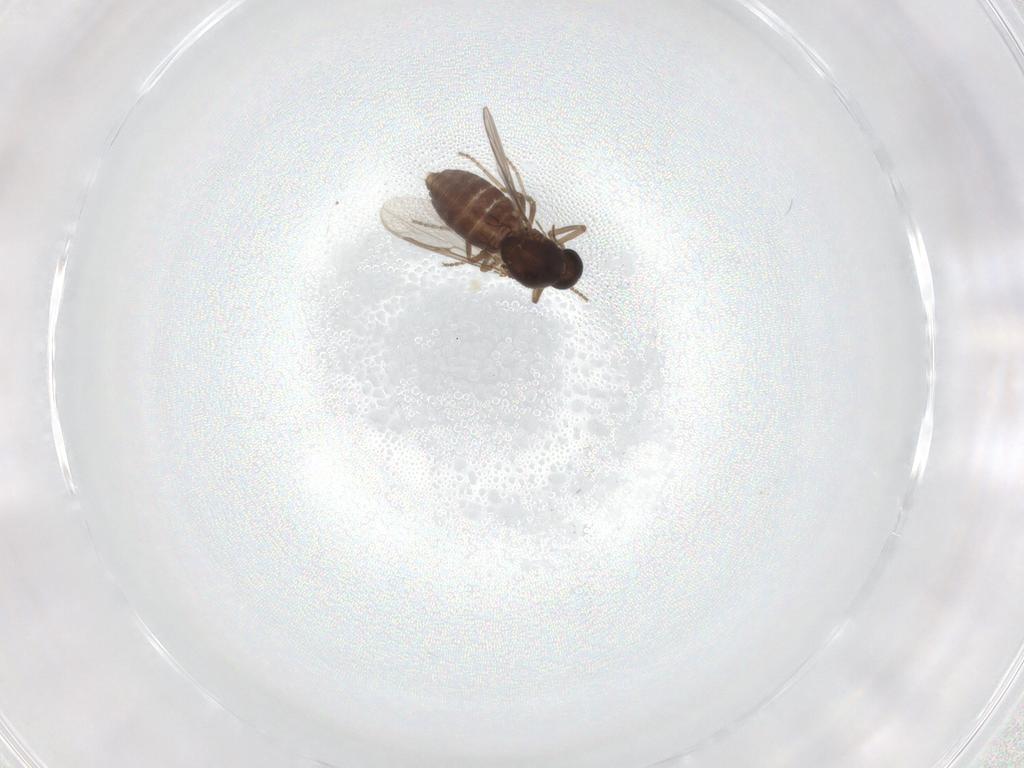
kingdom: Animalia
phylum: Arthropoda
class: Insecta
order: Diptera
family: Ceratopogonidae
